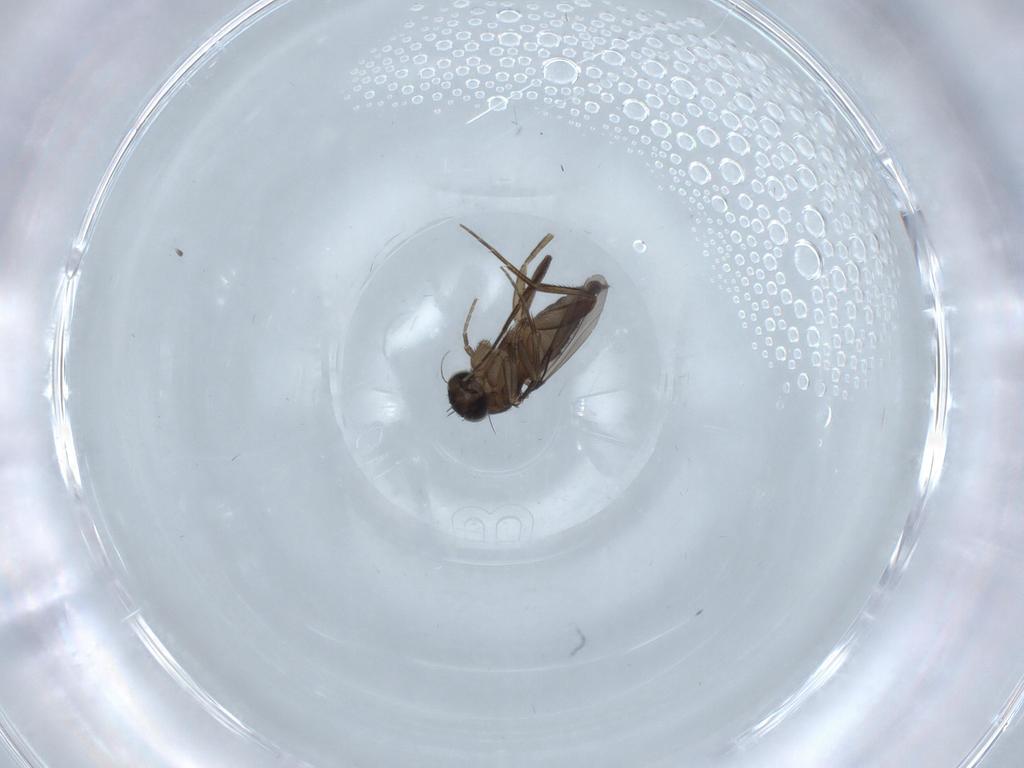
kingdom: Animalia
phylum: Arthropoda
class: Insecta
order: Diptera
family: Phoridae
